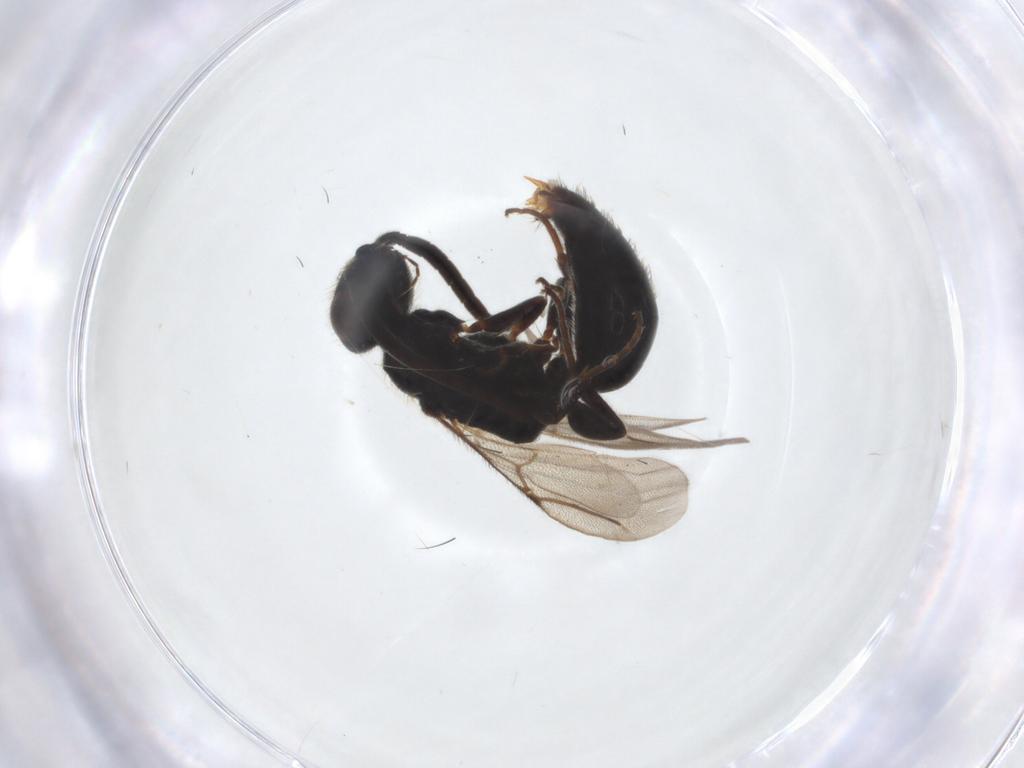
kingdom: Animalia
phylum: Arthropoda
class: Insecta
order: Hymenoptera
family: Bethylidae
